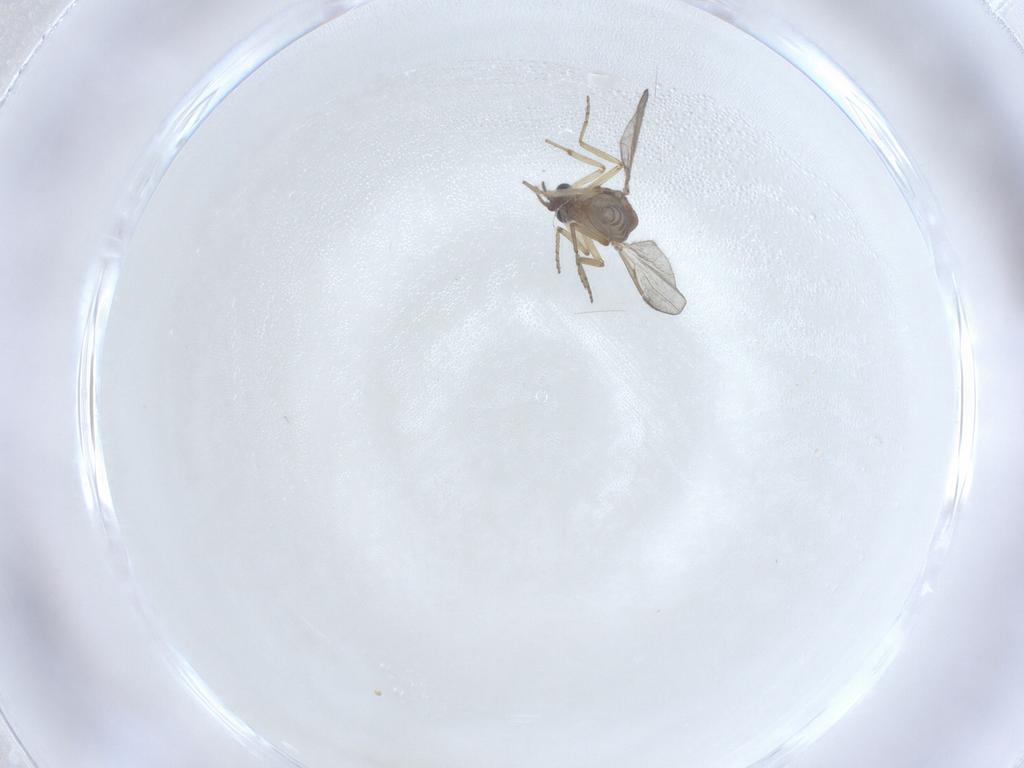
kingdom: Animalia
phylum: Arthropoda
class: Insecta
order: Diptera
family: Ceratopogonidae
